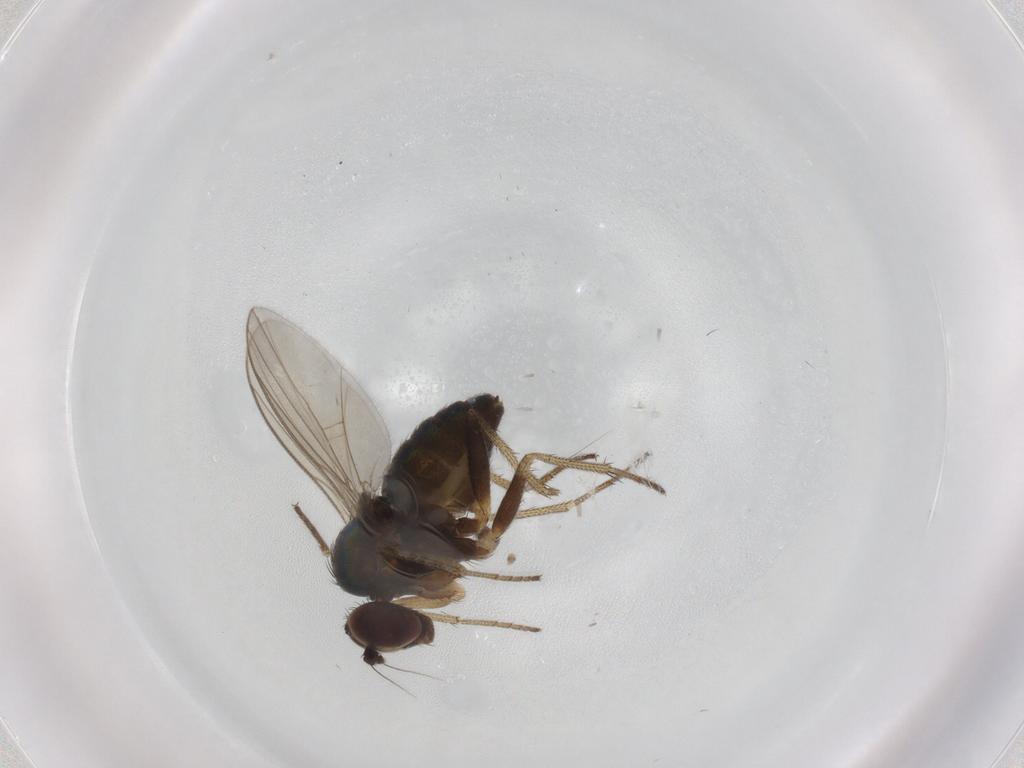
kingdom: Animalia
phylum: Arthropoda
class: Insecta
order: Diptera
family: Dolichopodidae
